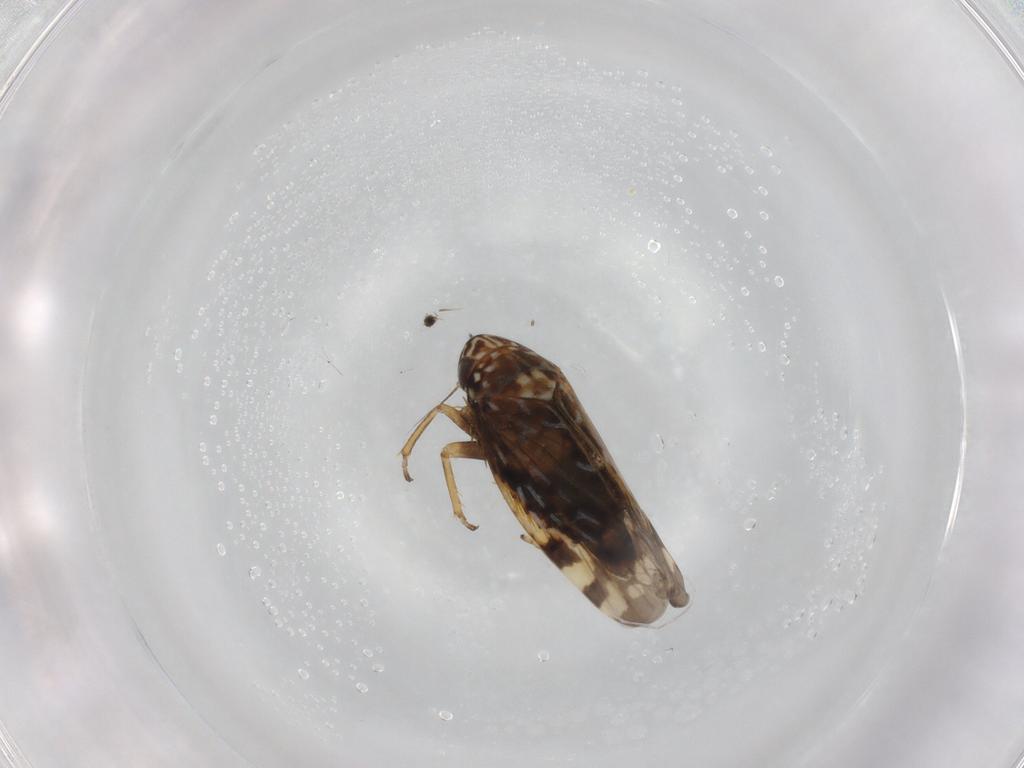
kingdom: Animalia
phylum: Arthropoda
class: Insecta
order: Hemiptera
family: Cicadellidae
